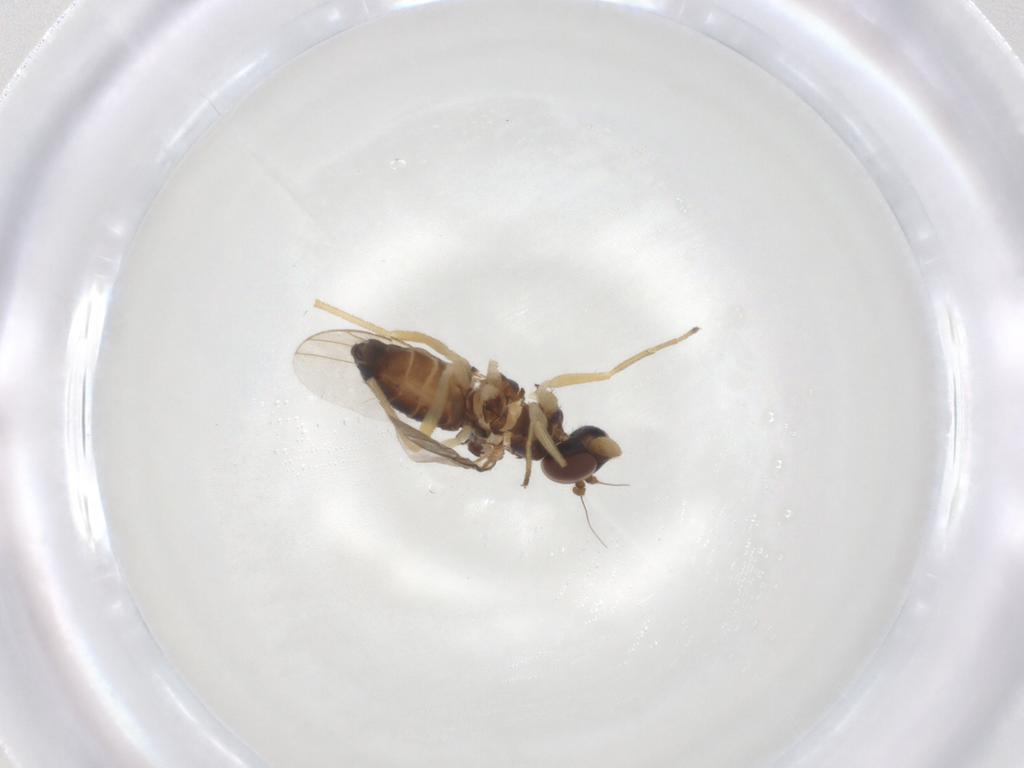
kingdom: Animalia
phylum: Arthropoda
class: Insecta
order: Diptera
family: Dolichopodidae
